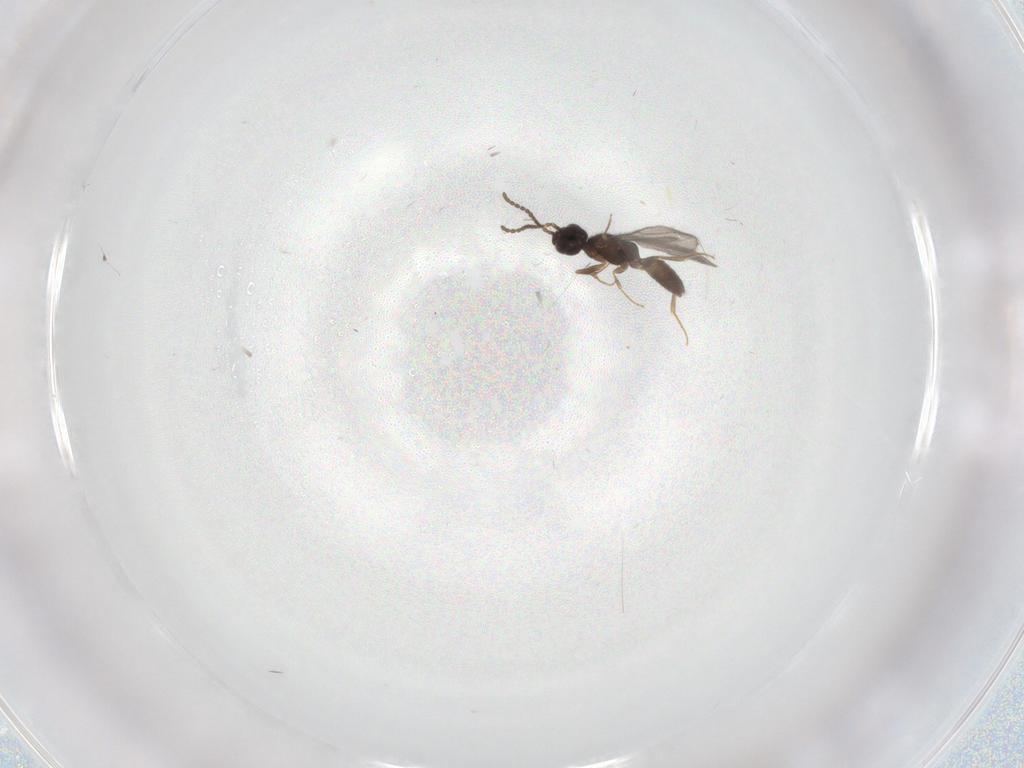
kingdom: Animalia
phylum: Arthropoda
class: Insecta
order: Hymenoptera
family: Bethylidae
